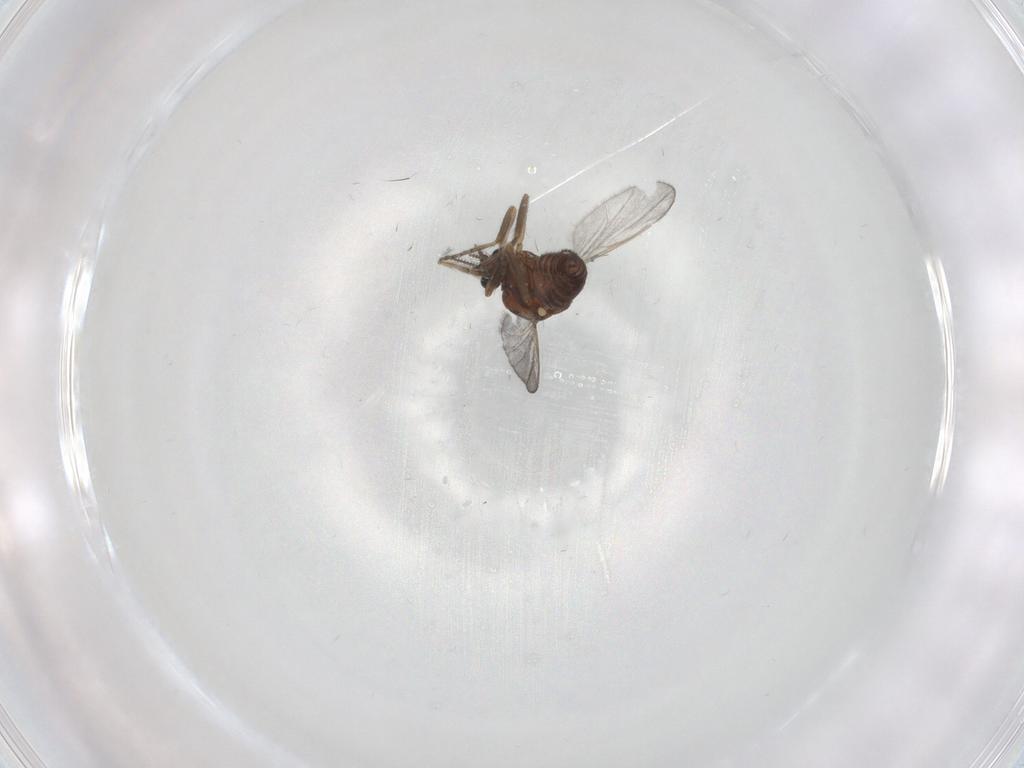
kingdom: Animalia
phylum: Arthropoda
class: Insecta
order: Diptera
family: Ceratopogonidae
